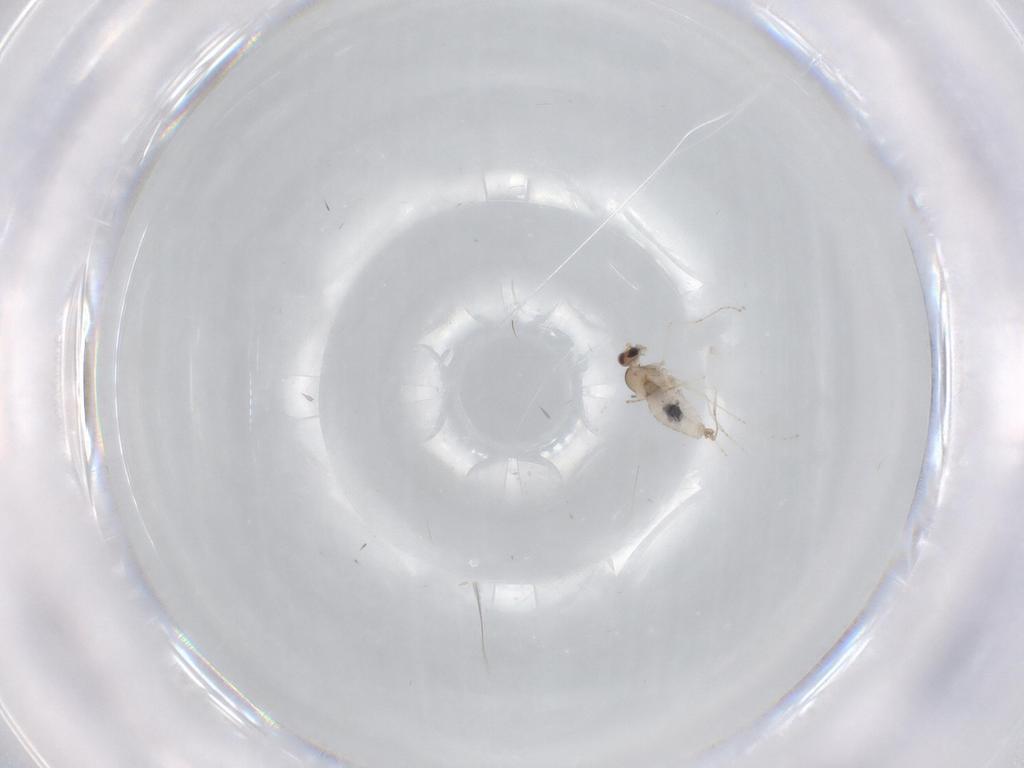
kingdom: Animalia
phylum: Arthropoda
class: Insecta
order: Diptera
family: Cecidomyiidae
